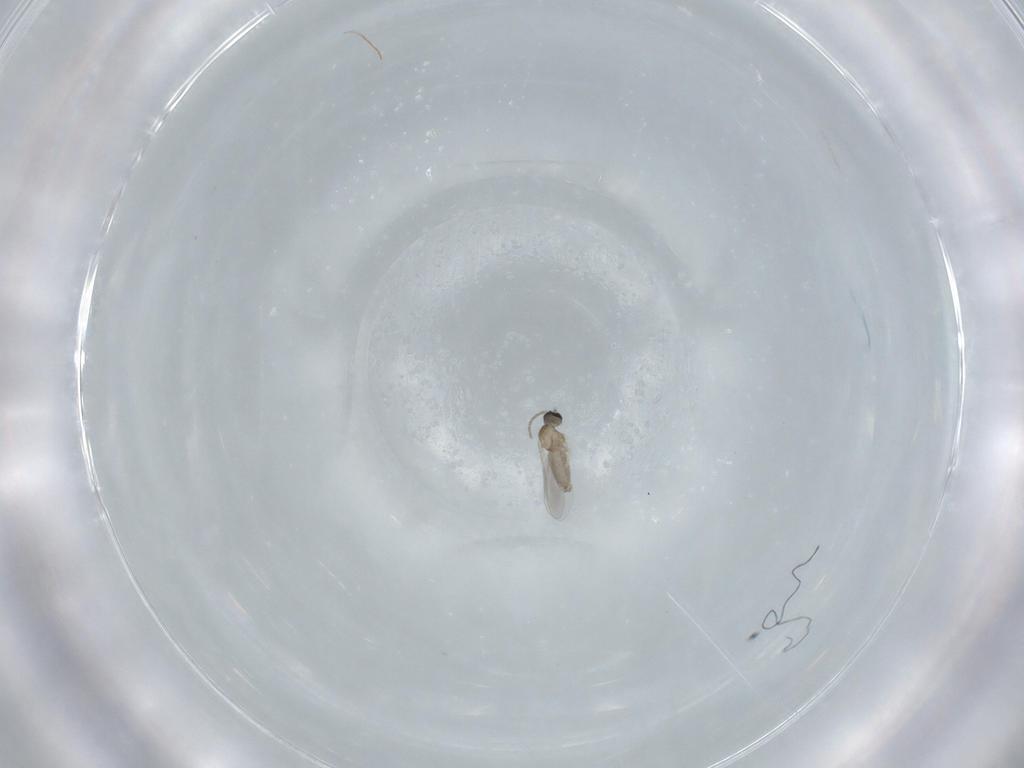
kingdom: Animalia
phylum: Arthropoda
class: Insecta
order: Diptera
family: Cecidomyiidae
